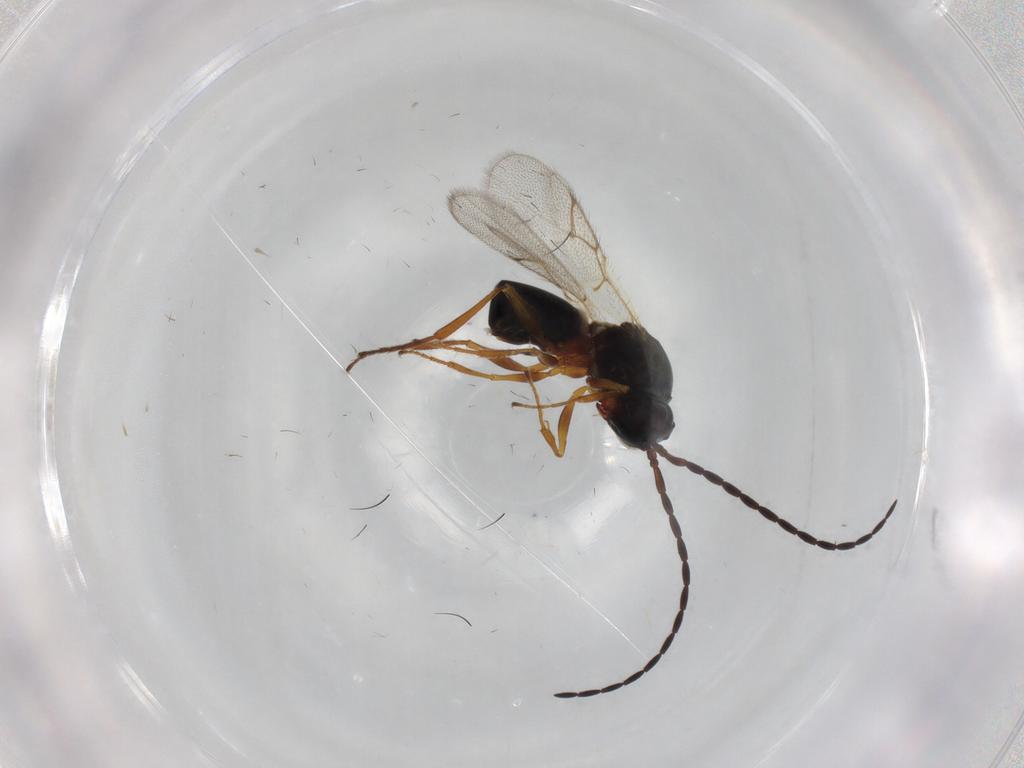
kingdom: Animalia
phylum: Arthropoda
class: Insecta
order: Hymenoptera
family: Figitidae
